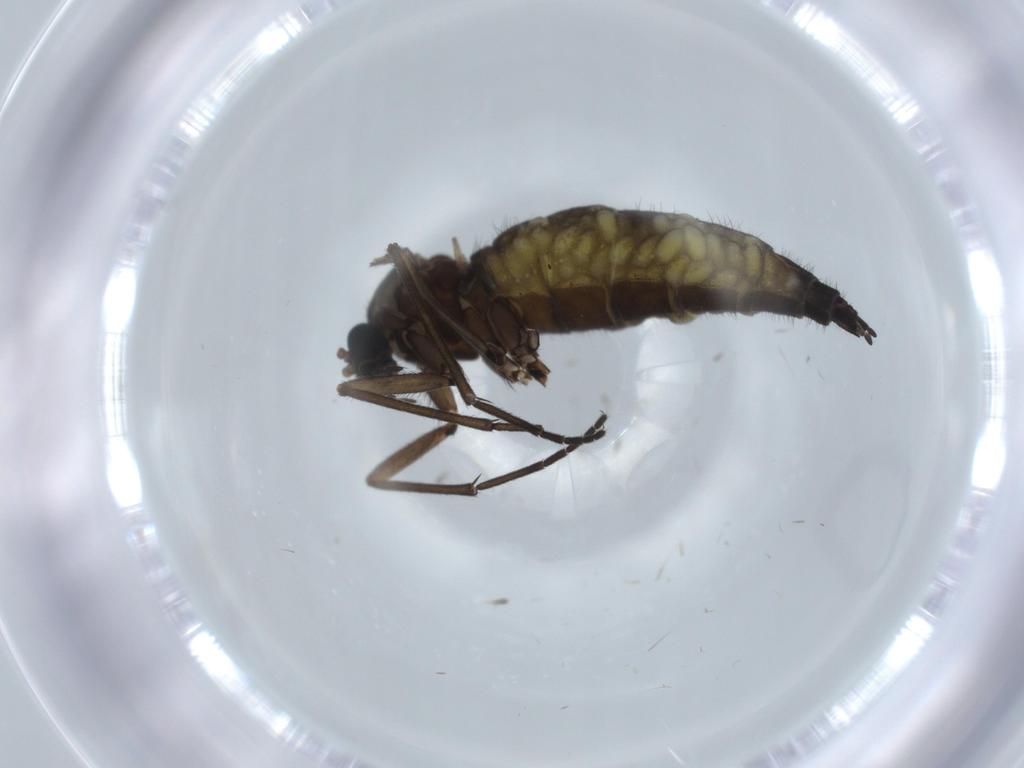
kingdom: Animalia
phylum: Arthropoda
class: Insecta
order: Diptera
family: Sciaridae
